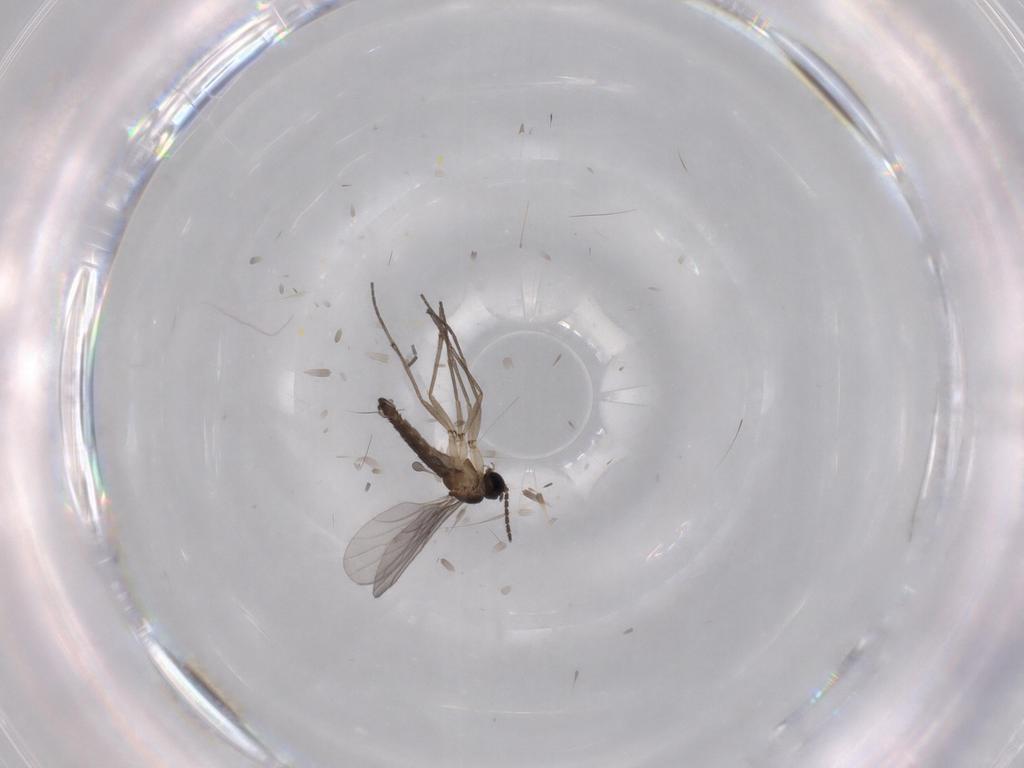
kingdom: Animalia
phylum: Arthropoda
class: Insecta
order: Diptera
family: Sciaridae
